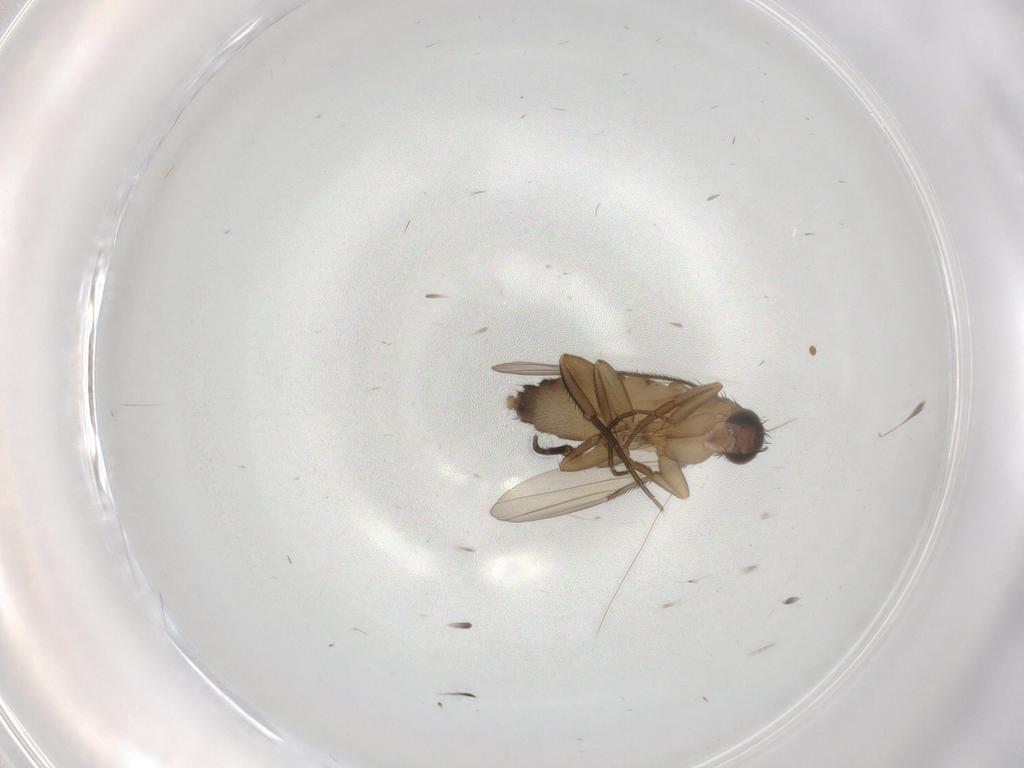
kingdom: Animalia
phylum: Arthropoda
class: Insecta
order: Diptera
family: Phoridae
